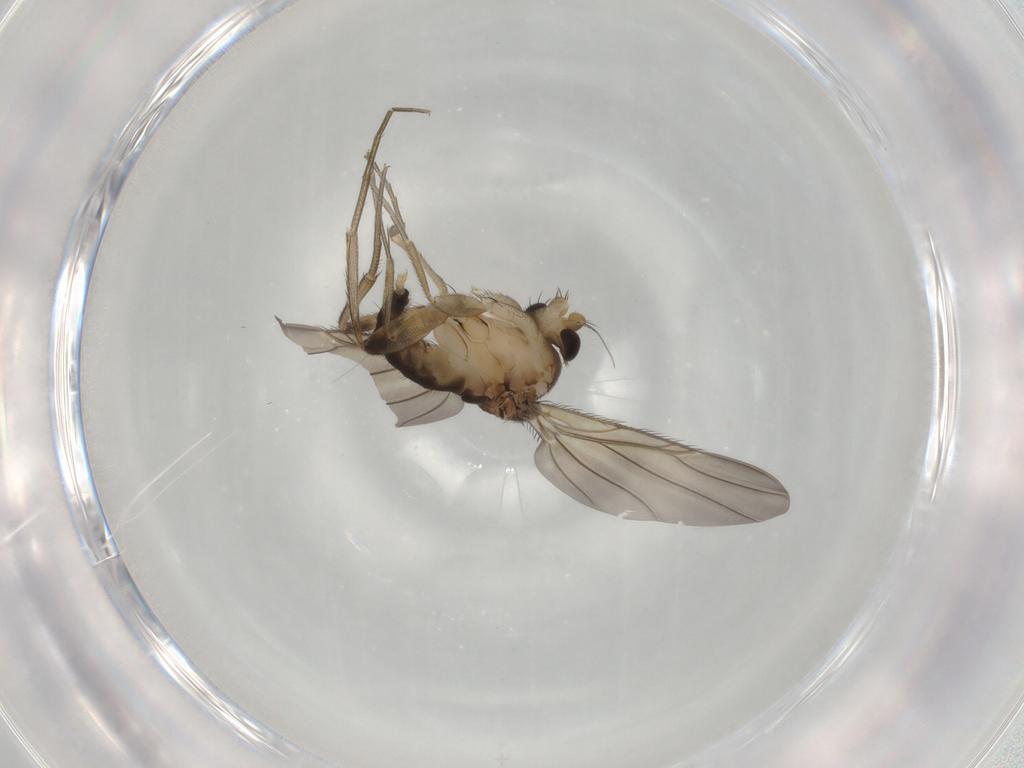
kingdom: Animalia
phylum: Arthropoda
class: Insecta
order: Diptera
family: Phoridae
